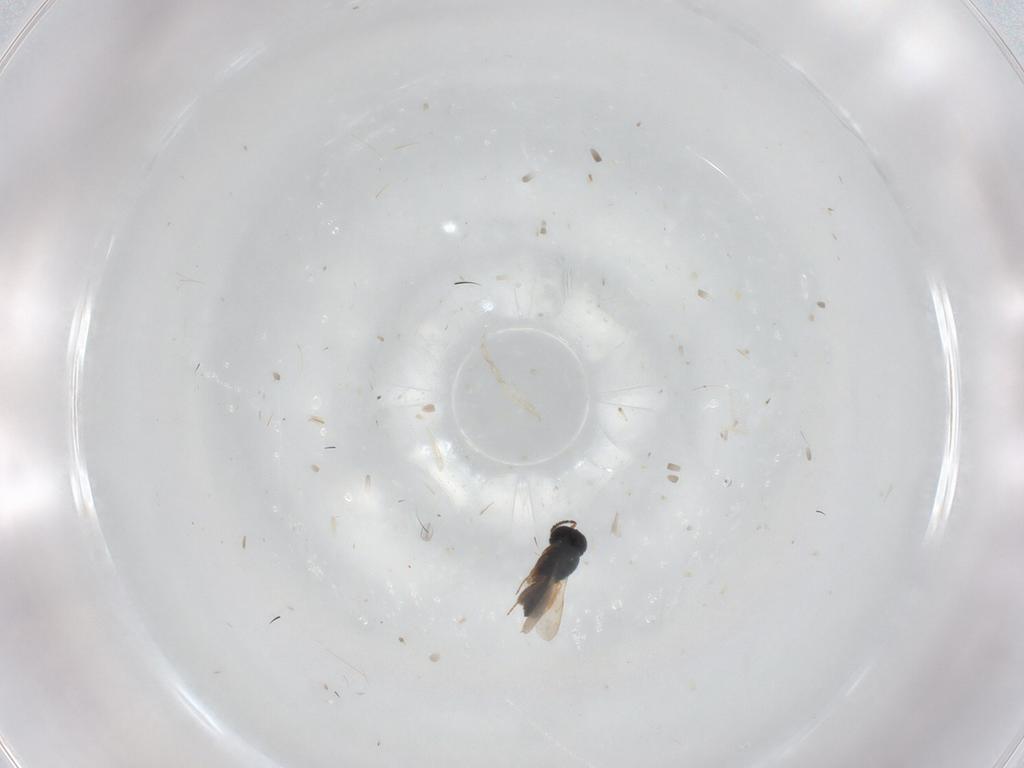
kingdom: Animalia
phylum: Arthropoda
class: Insecta
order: Hymenoptera
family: Scelionidae
